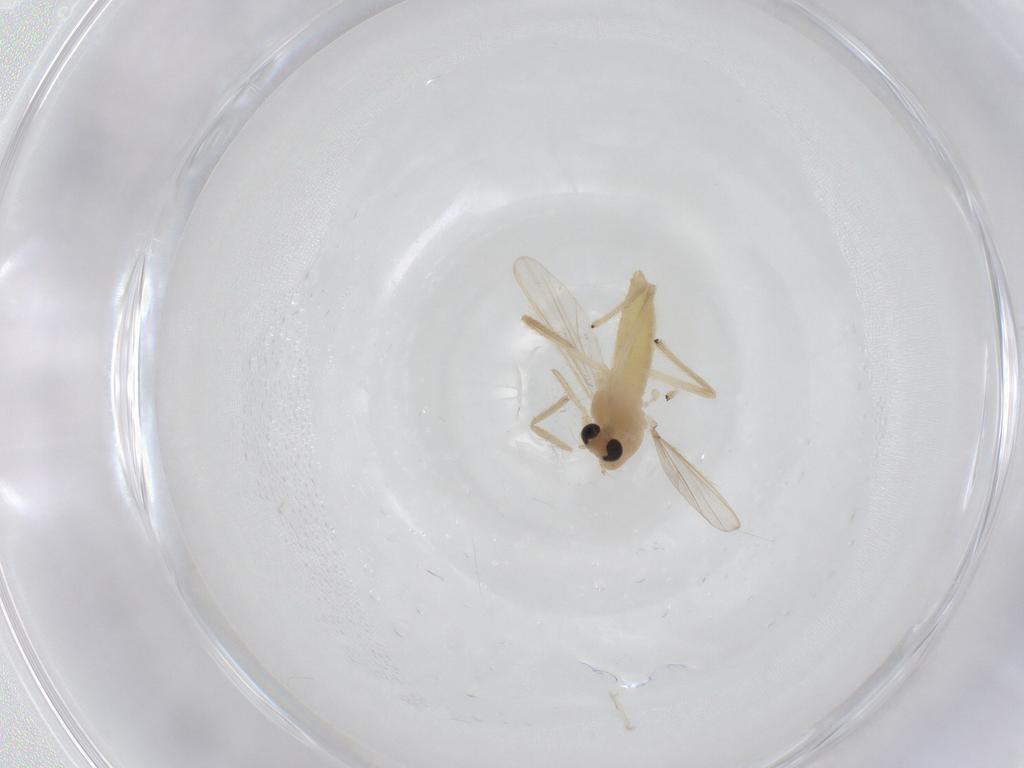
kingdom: Animalia
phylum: Arthropoda
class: Insecta
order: Diptera
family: Chironomidae
